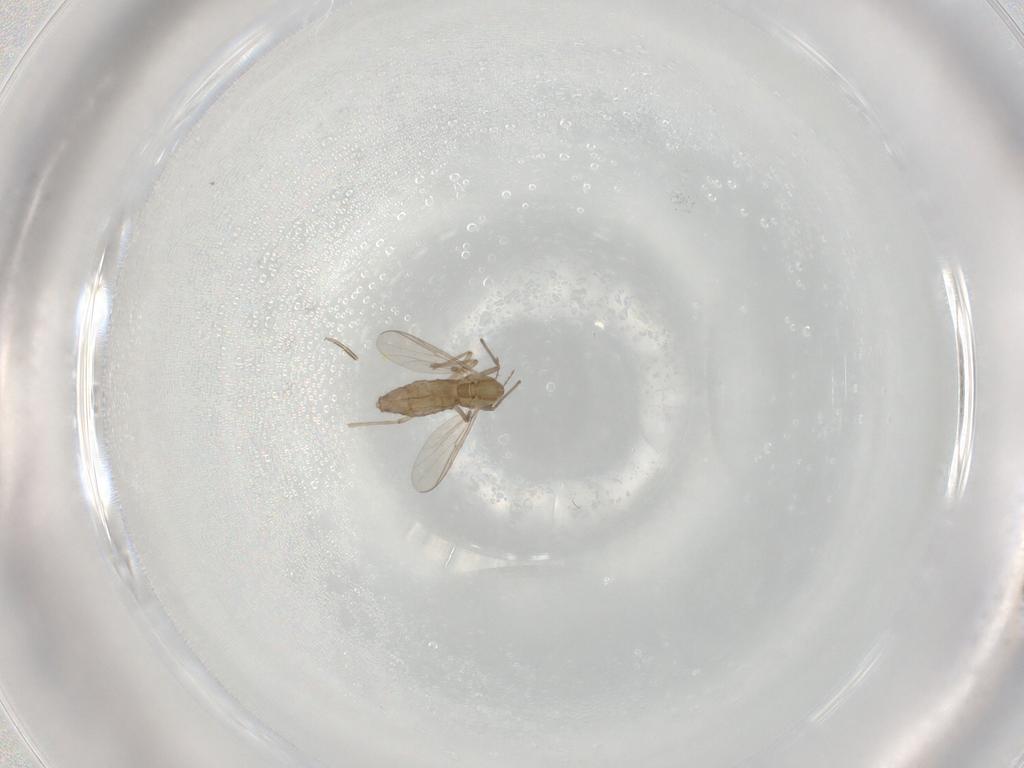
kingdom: Animalia
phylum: Arthropoda
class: Insecta
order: Diptera
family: Chironomidae
